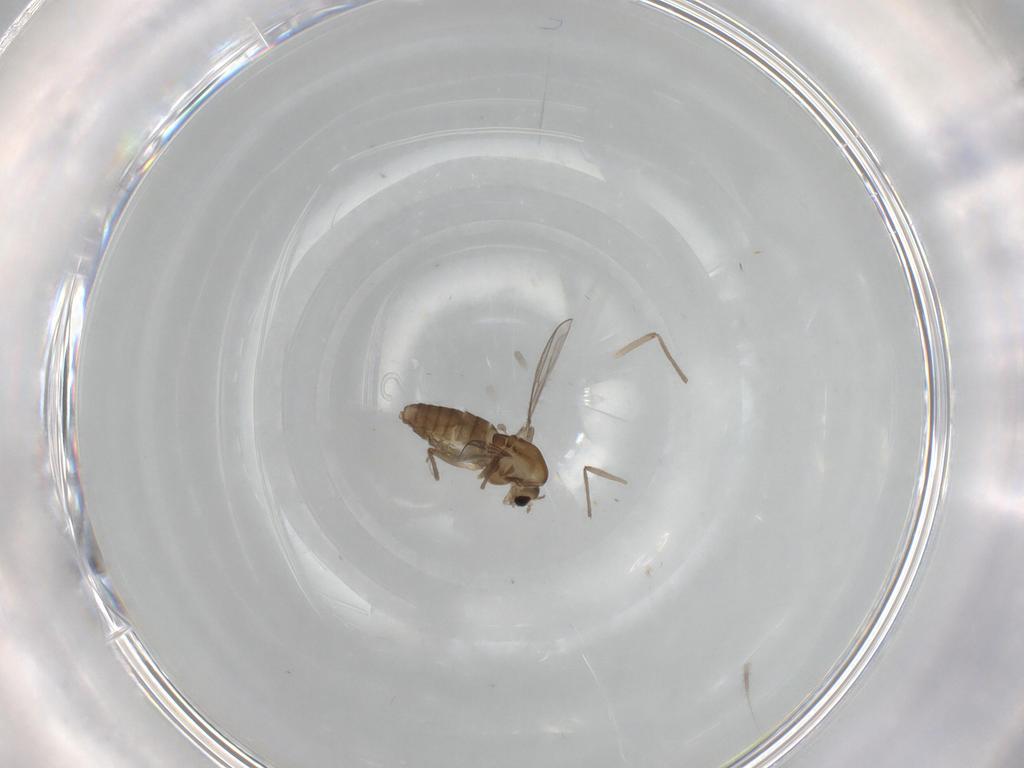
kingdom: Animalia
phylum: Arthropoda
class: Insecta
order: Diptera
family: Chironomidae
